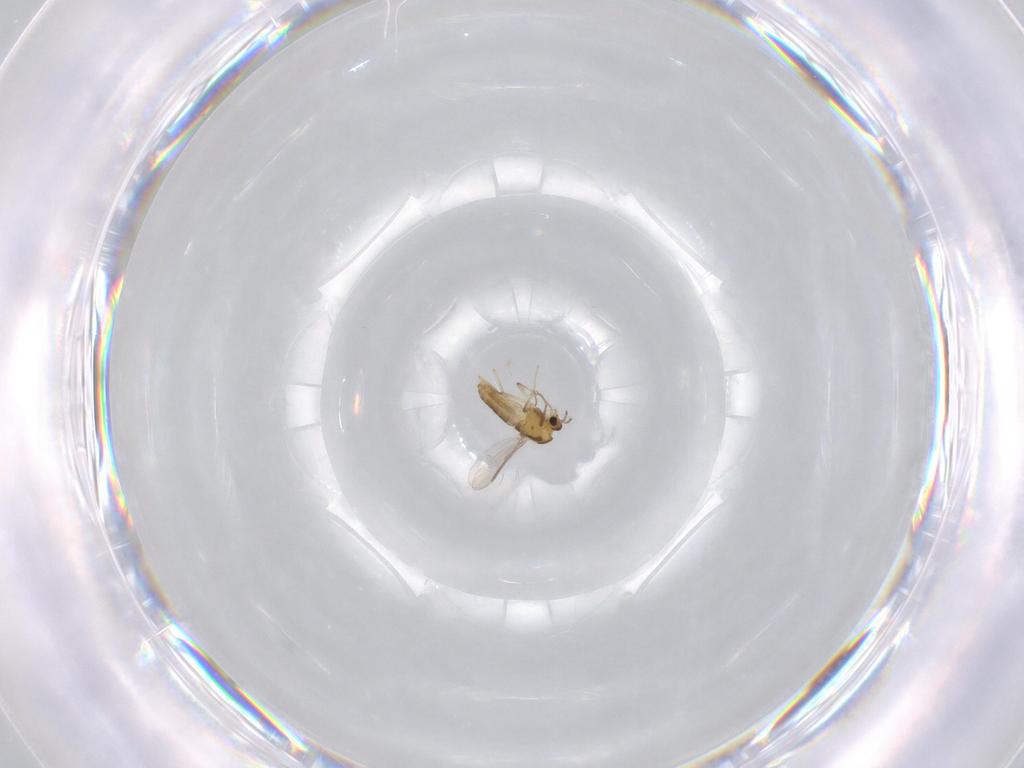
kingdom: Animalia
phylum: Arthropoda
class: Insecta
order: Diptera
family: Chironomidae
